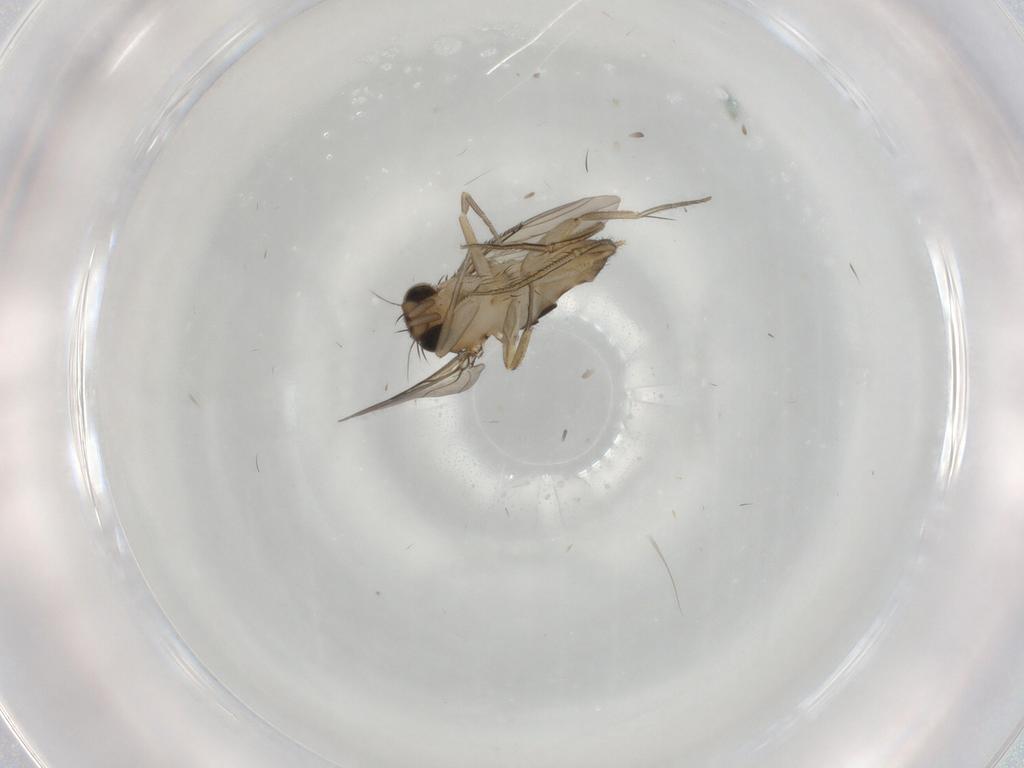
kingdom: Animalia
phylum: Arthropoda
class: Insecta
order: Diptera
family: Phoridae
